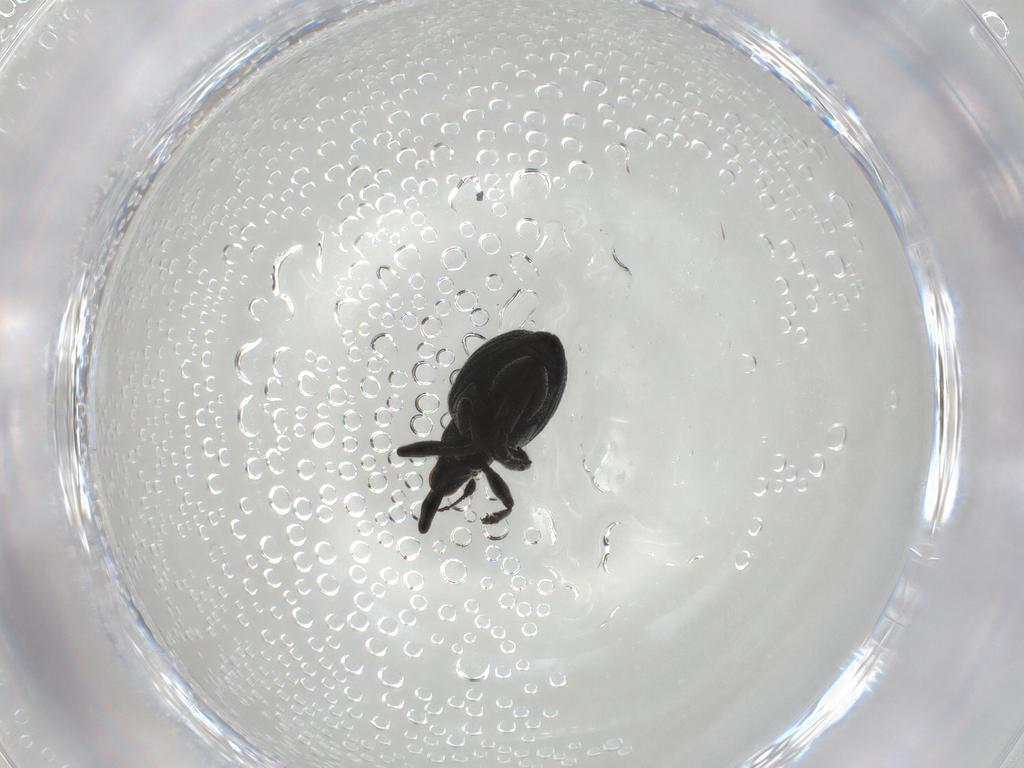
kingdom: Animalia
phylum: Arthropoda
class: Insecta
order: Coleoptera
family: Brentidae
